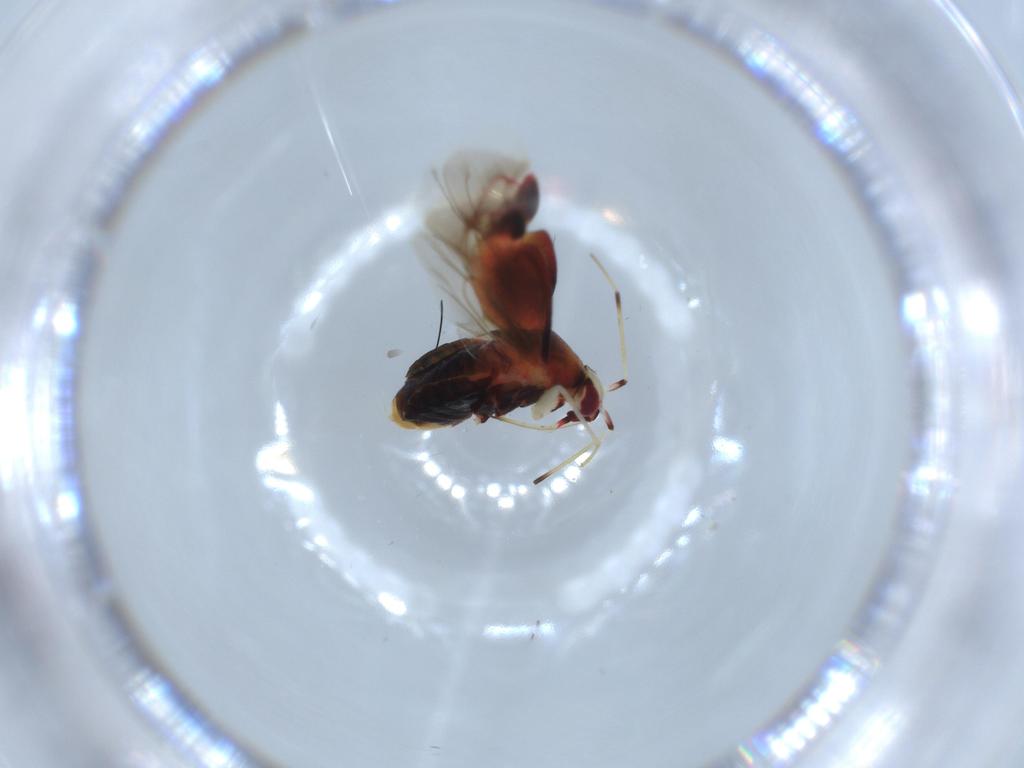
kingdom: Animalia
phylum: Arthropoda
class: Insecta
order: Hemiptera
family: Miridae
